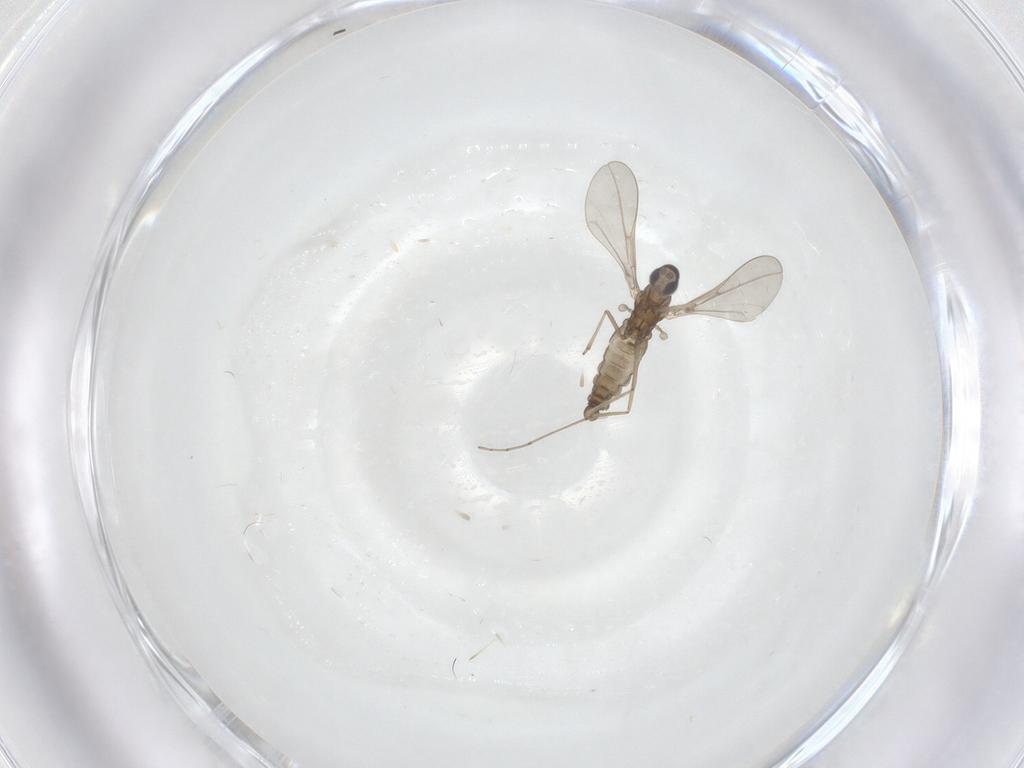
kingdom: Animalia
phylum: Arthropoda
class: Insecta
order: Diptera
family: Cecidomyiidae
